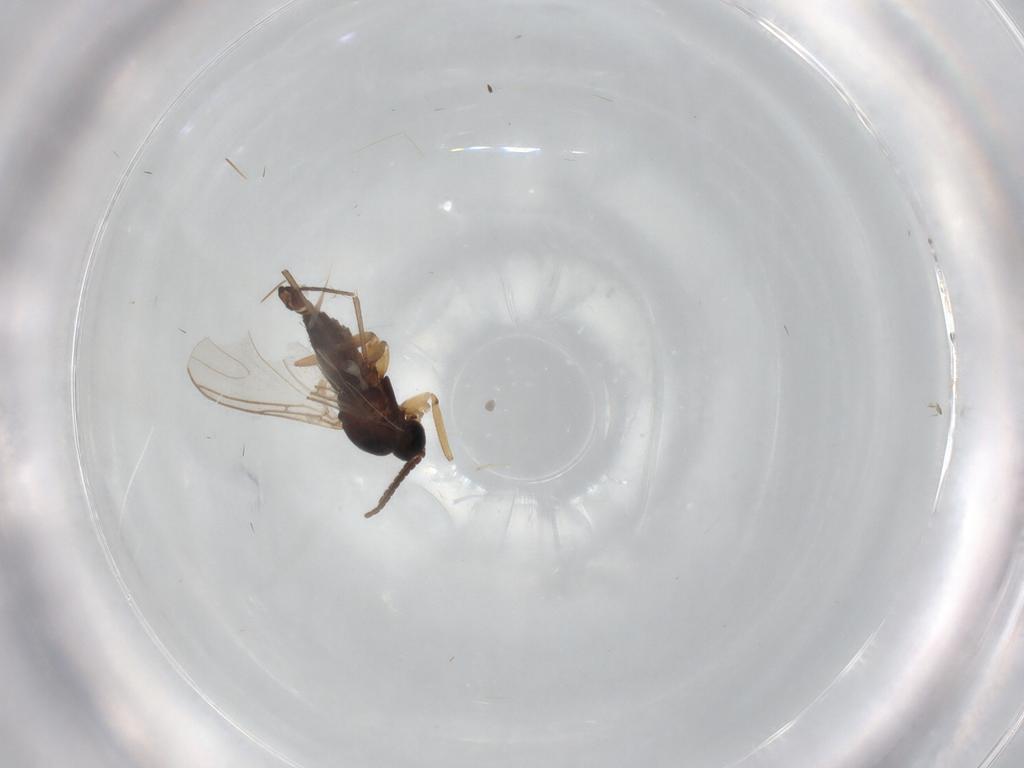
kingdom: Animalia
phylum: Arthropoda
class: Insecta
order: Diptera
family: Sciaridae
